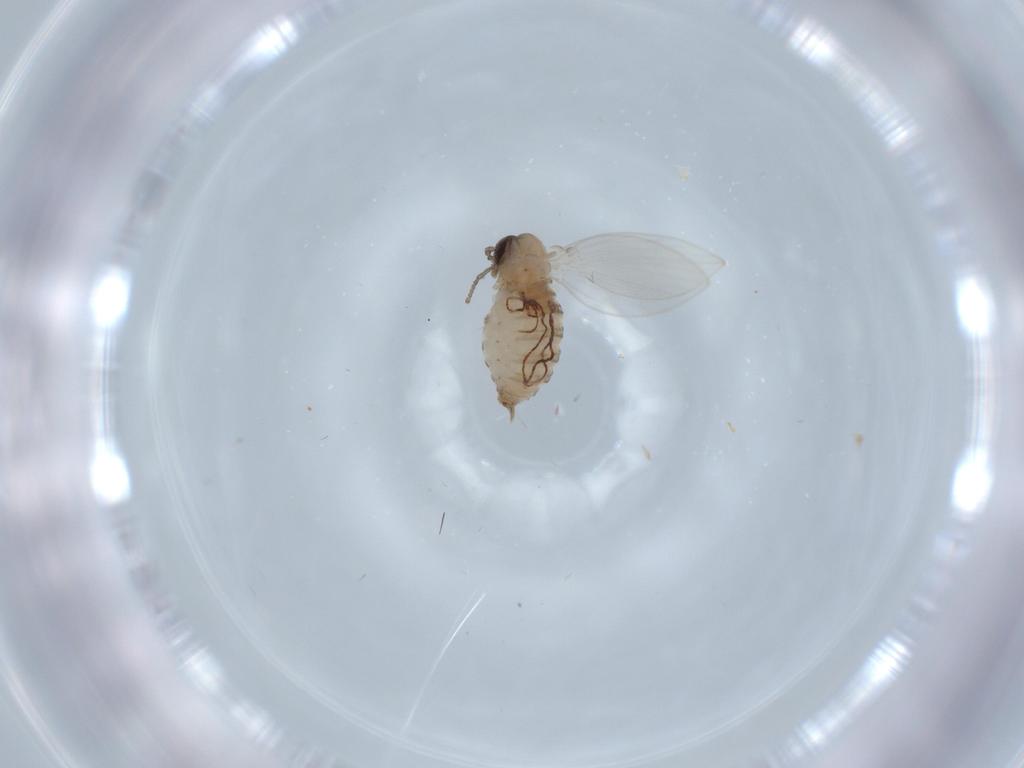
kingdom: Animalia
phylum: Arthropoda
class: Insecta
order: Diptera
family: Psychodidae
